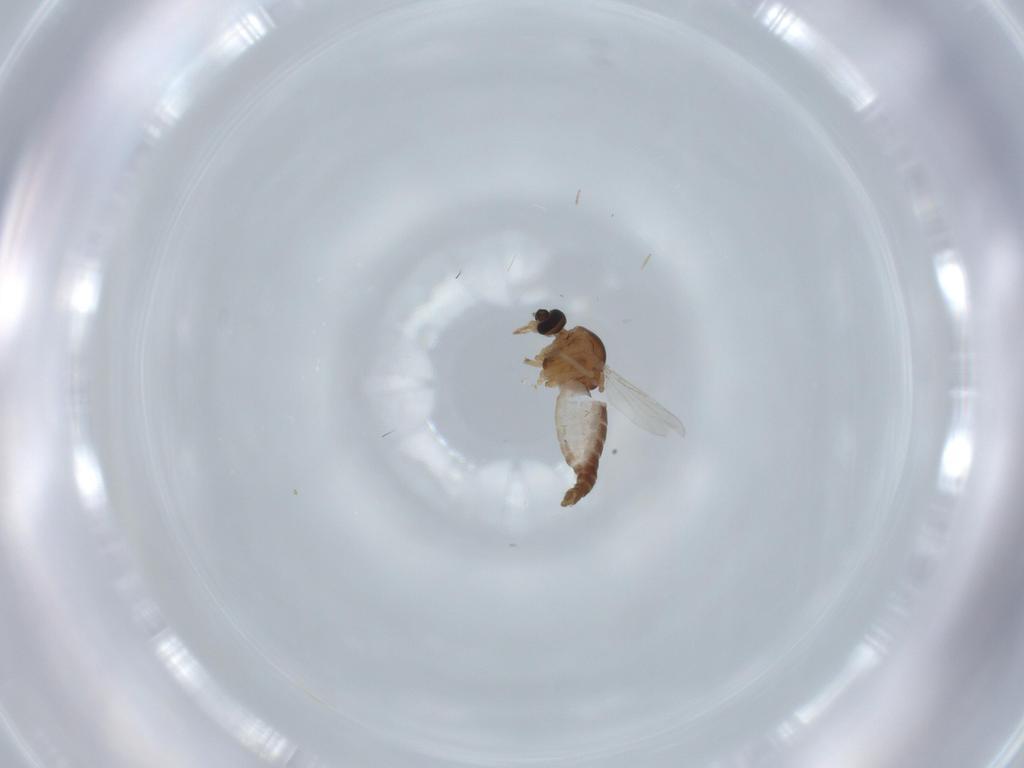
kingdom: Animalia
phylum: Arthropoda
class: Insecta
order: Diptera
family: Ceratopogonidae
